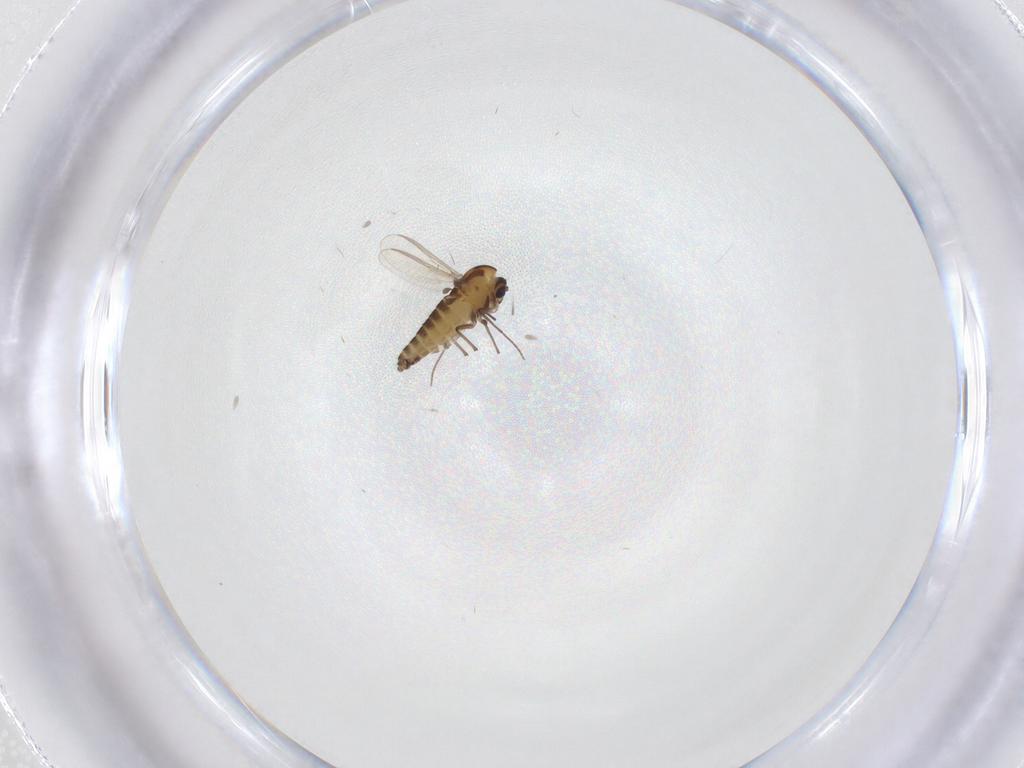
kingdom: Animalia
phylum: Arthropoda
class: Insecta
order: Diptera
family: Chironomidae
